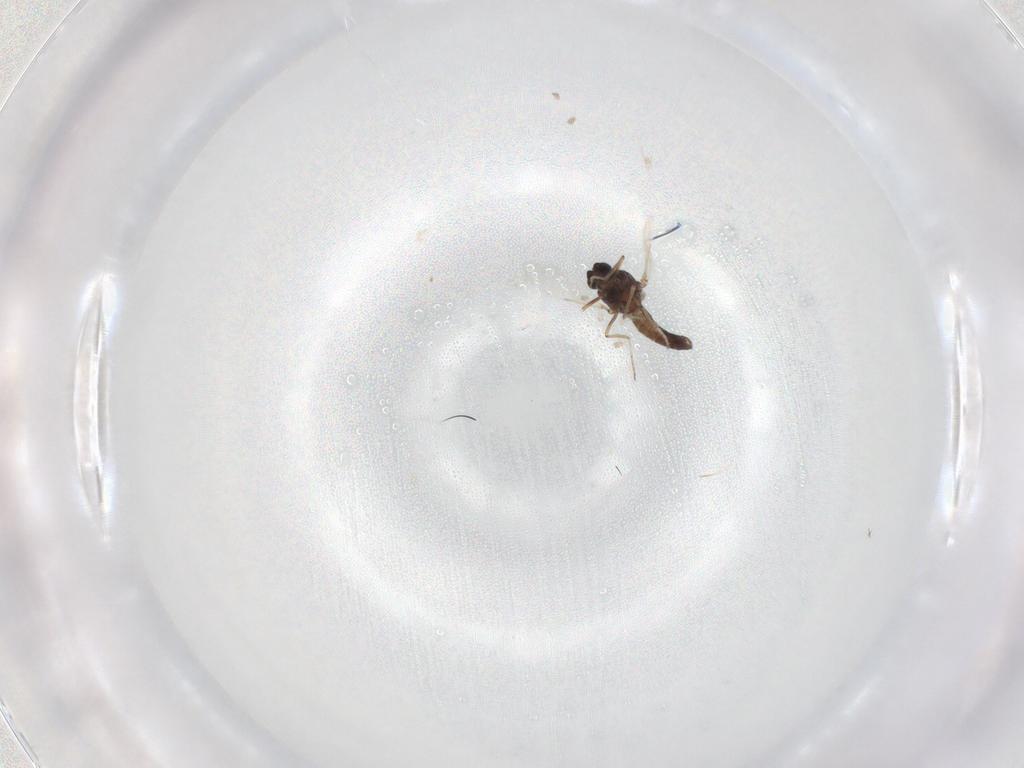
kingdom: Animalia
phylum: Arthropoda
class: Insecta
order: Diptera
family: Ceratopogonidae
